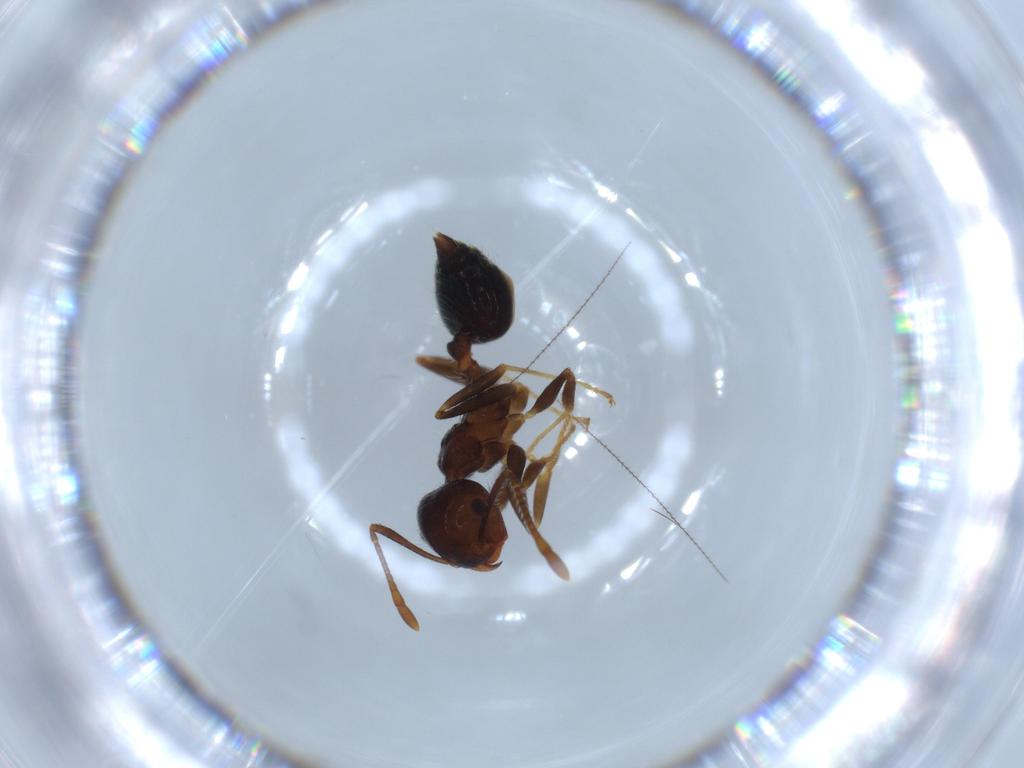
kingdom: Animalia
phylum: Arthropoda
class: Insecta
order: Hymenoptera
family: Formicidae
